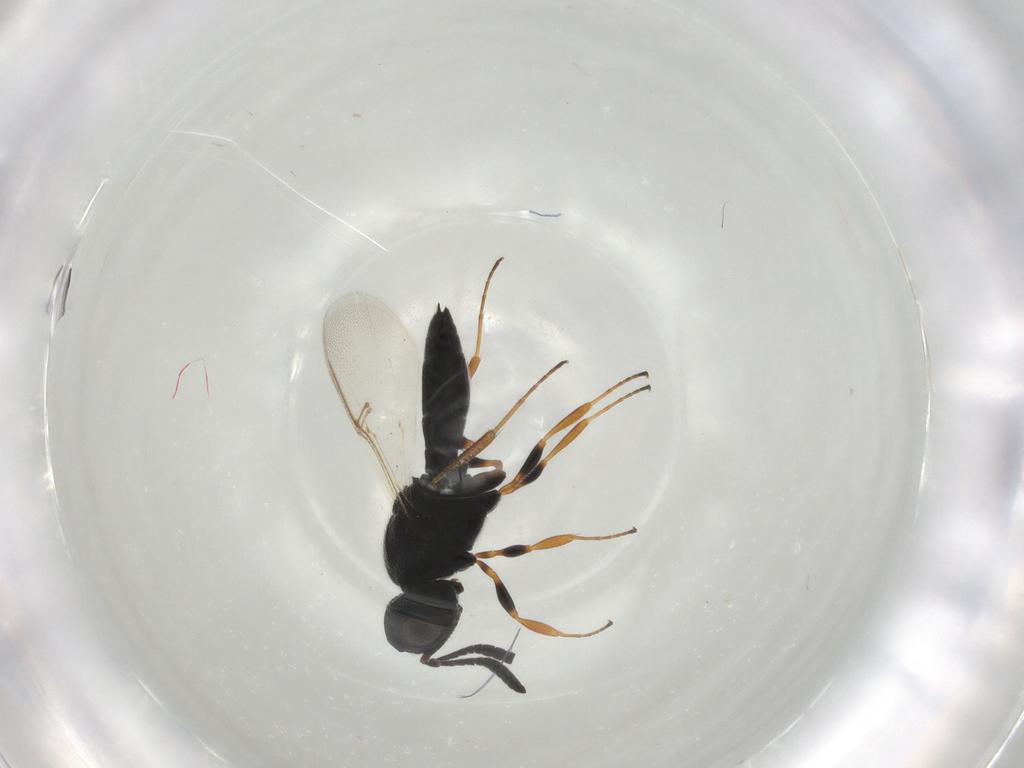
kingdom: Animalia
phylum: Arthropoda
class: Insecta
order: Hymenoptera
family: Scelionidae
